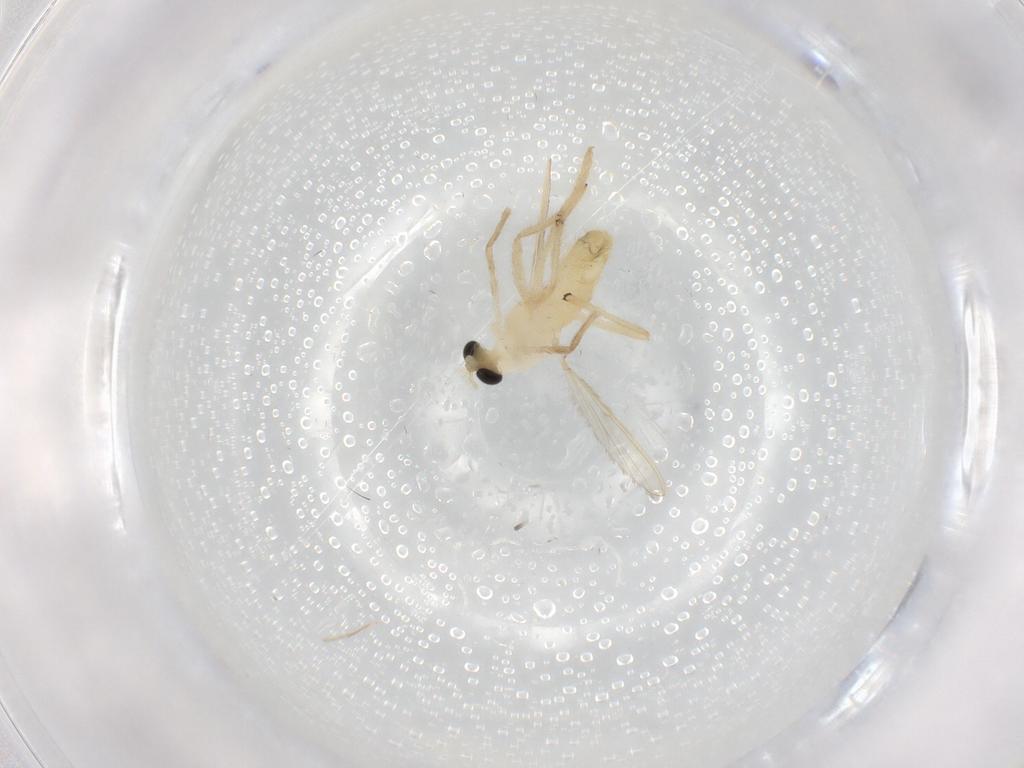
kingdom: Animalia
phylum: Arthropoda
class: Insecta
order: Diptera
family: Chironomidae
